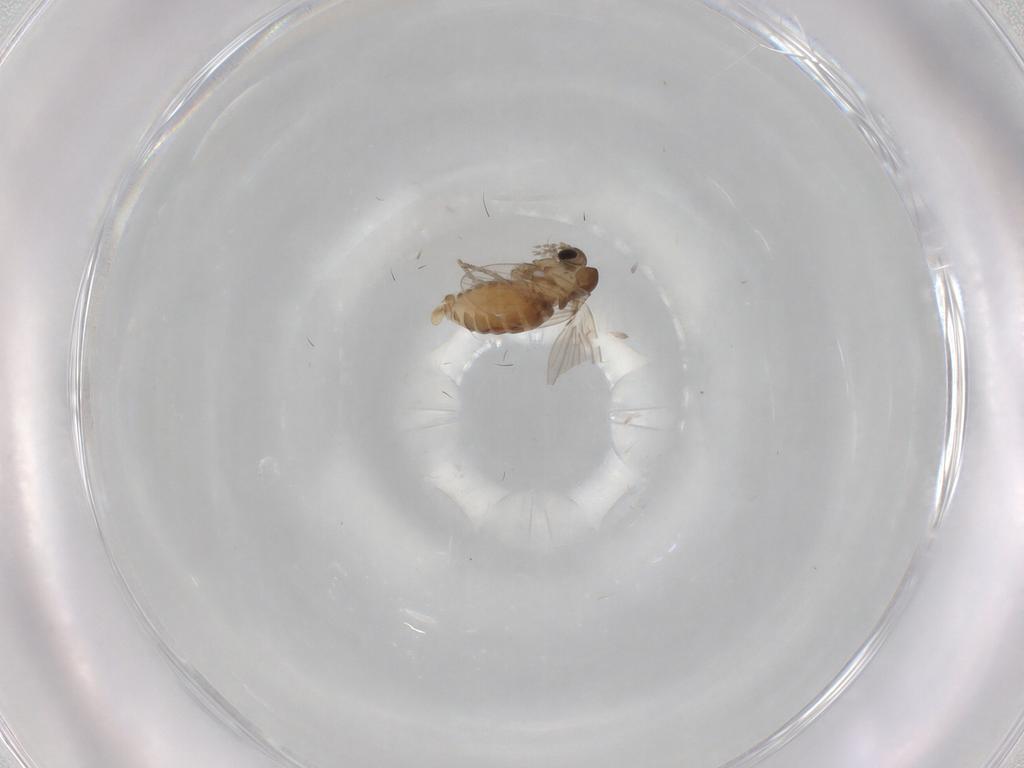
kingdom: Animalia
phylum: Arthropoda
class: Insecta
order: Diptera
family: Psychodidae
